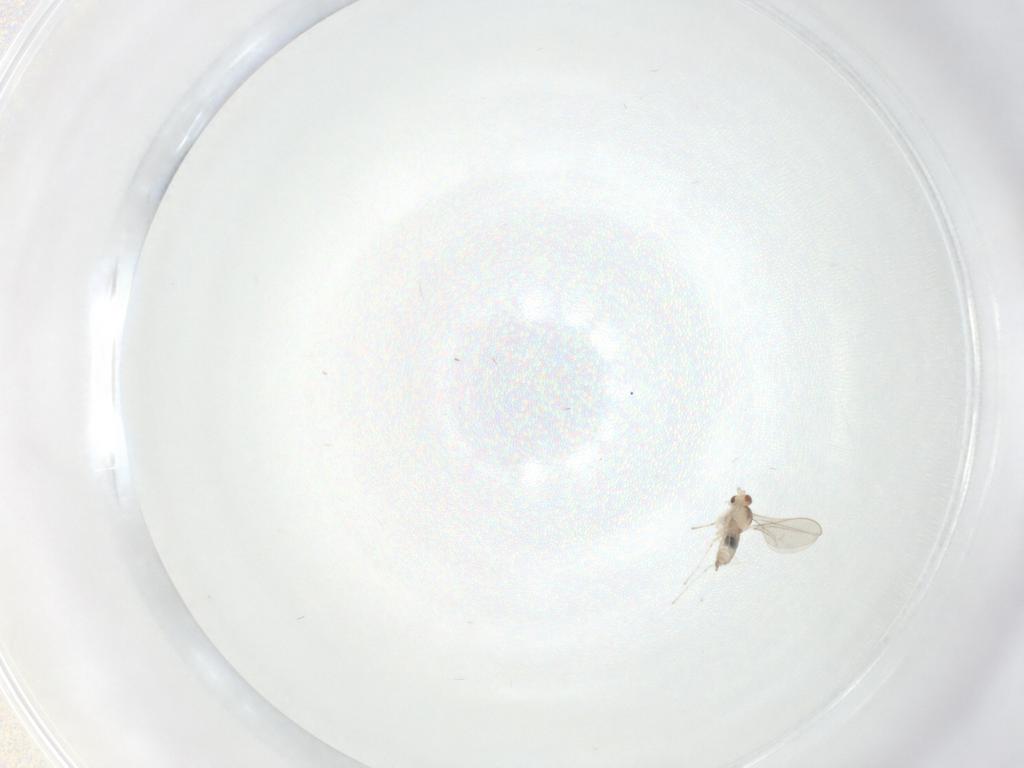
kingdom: Animalia
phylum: Arthropoda
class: Insecta
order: Diptera
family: Cecidomyiidae
